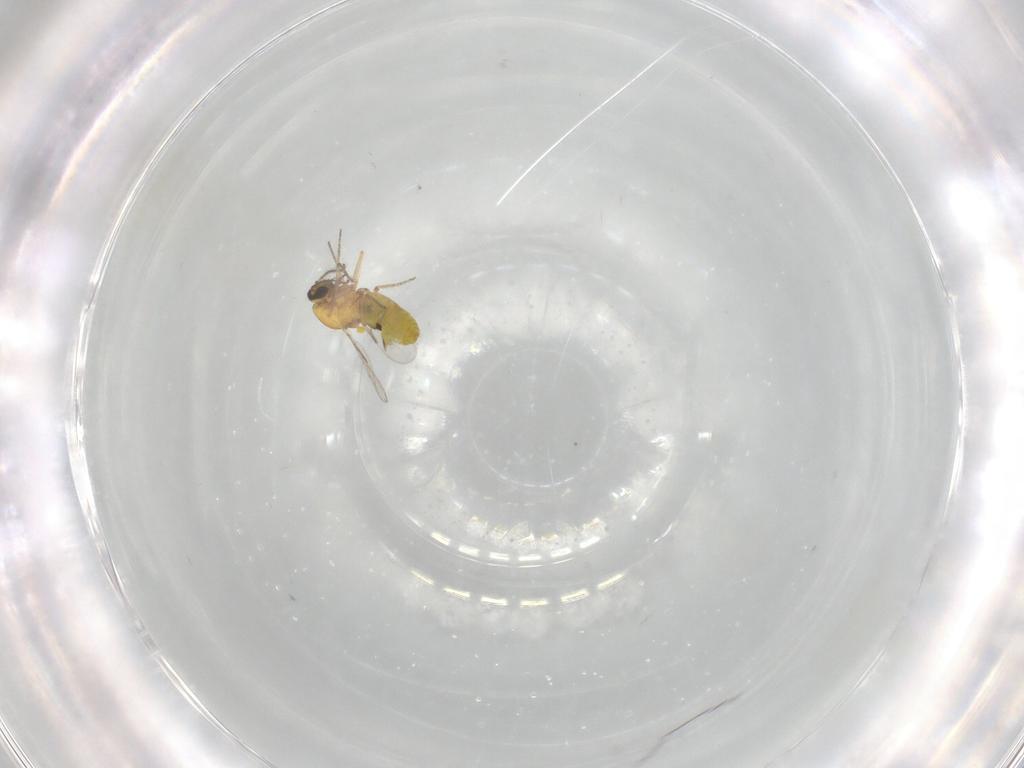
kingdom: Animalia
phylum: Arthropoda
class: Insecta
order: Diptera
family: Ceratopogonidae
